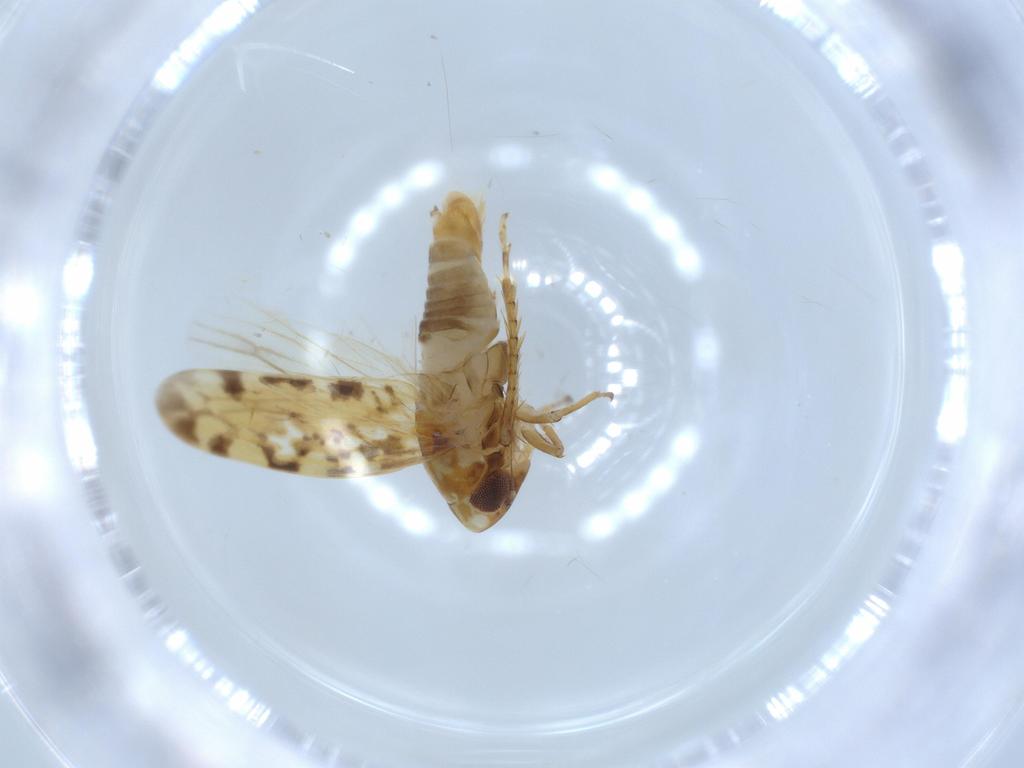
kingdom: Animalia
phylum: Arthropoda
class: Insecta
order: Hemiptera
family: Cicadellidae
